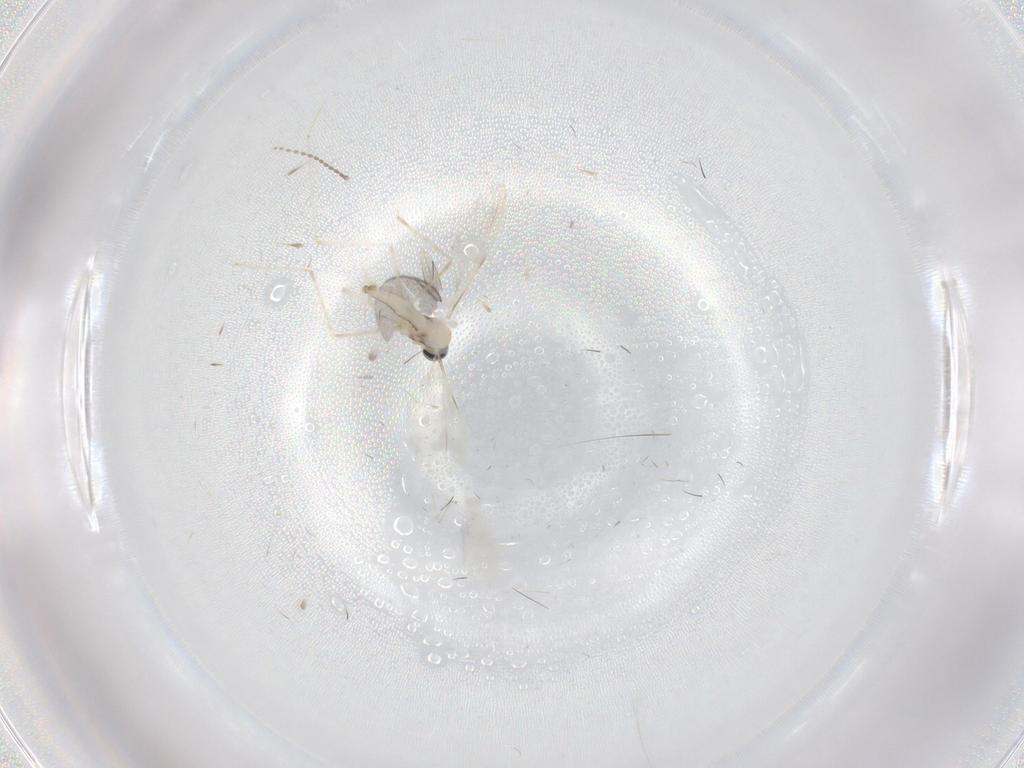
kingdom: Animalia
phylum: Arthropoda
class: Insecta
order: Diptera
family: Cecidomyiidae
